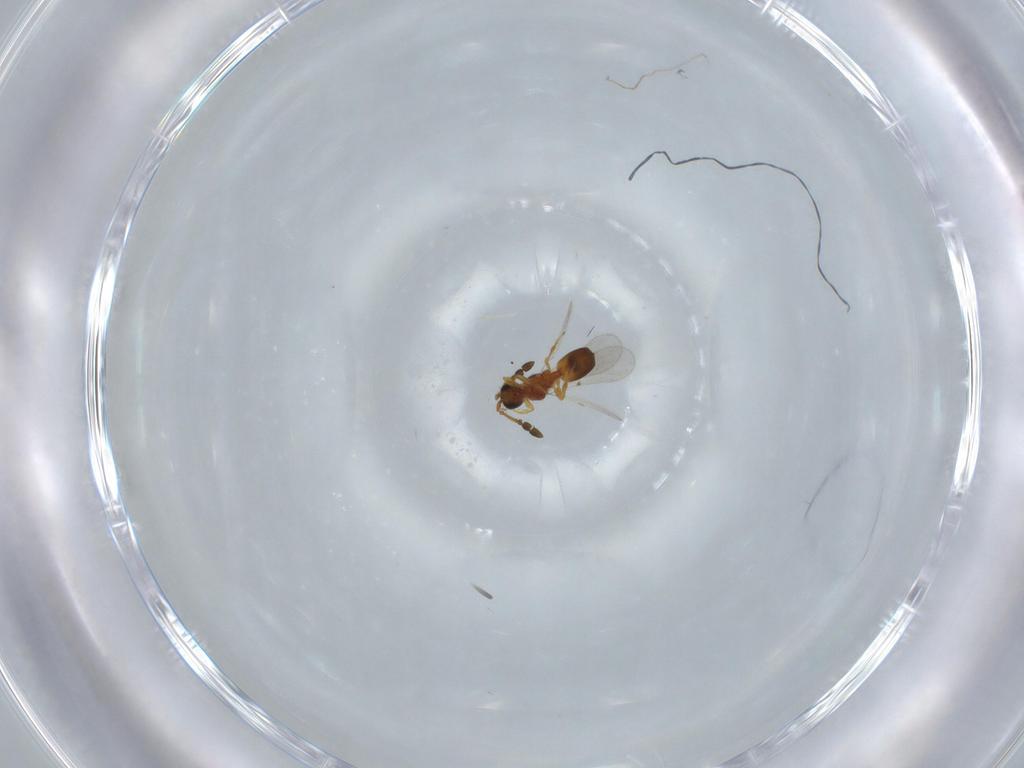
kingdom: Animalia
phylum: Arthropoda
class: Insecta
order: Hymenoptera
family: Diapriidae
